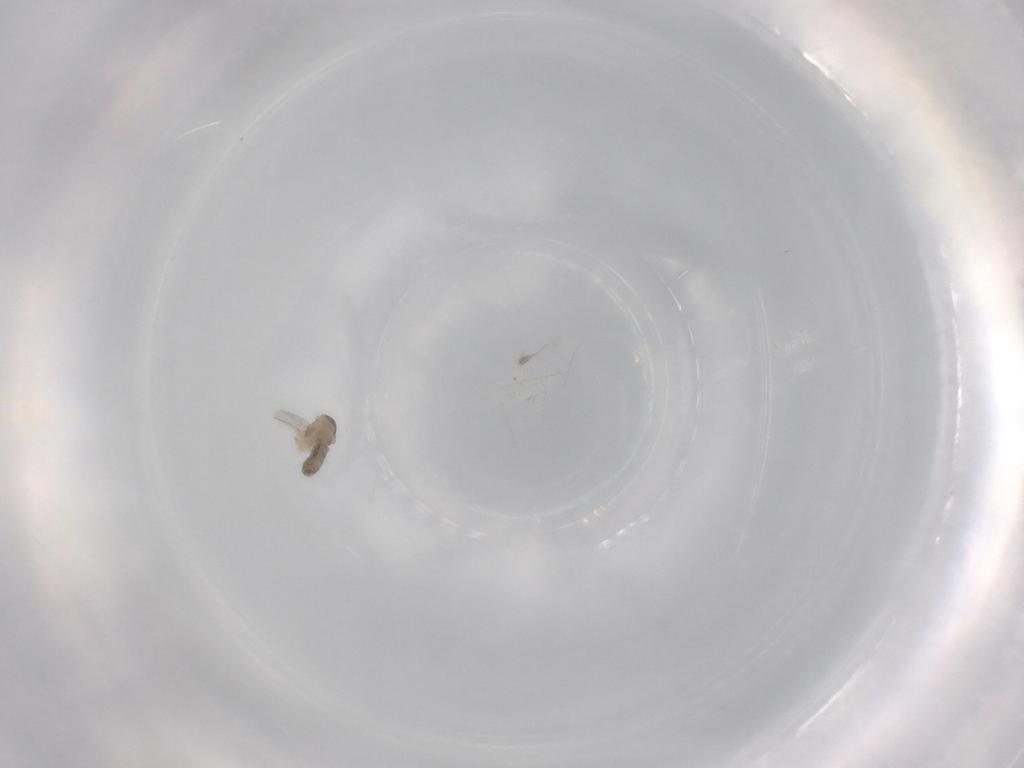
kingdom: Animalia
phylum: Arthropoda
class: Insecta
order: Diptera
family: Cecidomyiidae
